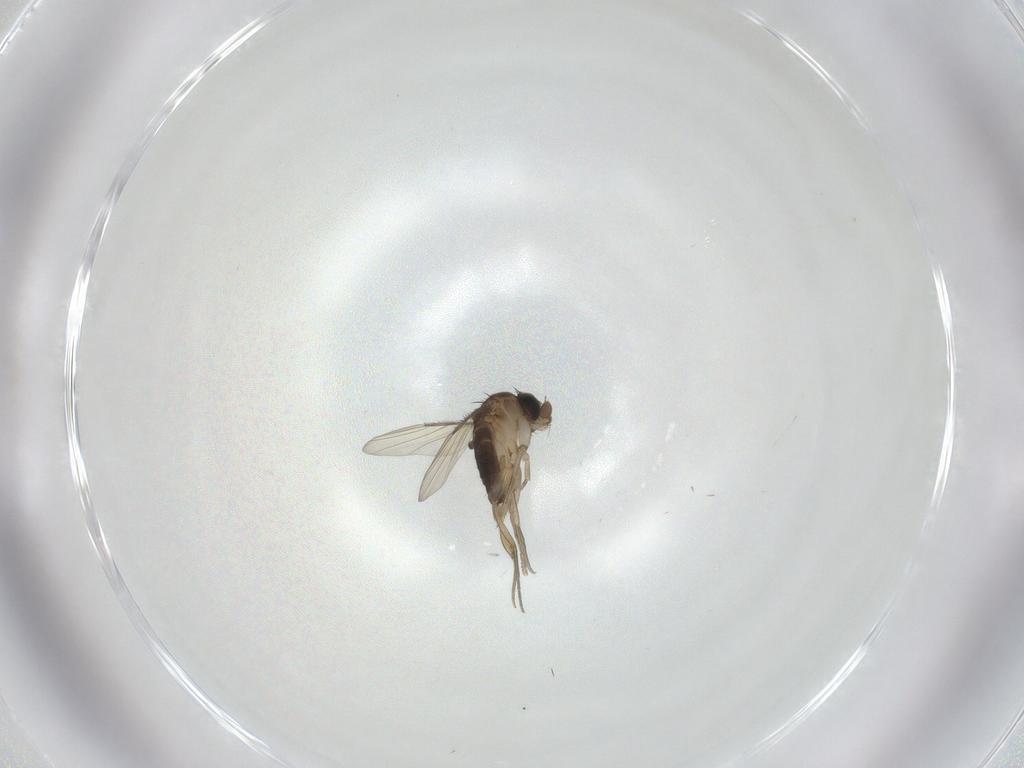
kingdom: Animalia
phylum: Arthropoda
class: Insecta
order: Diptera
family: Phoridae
